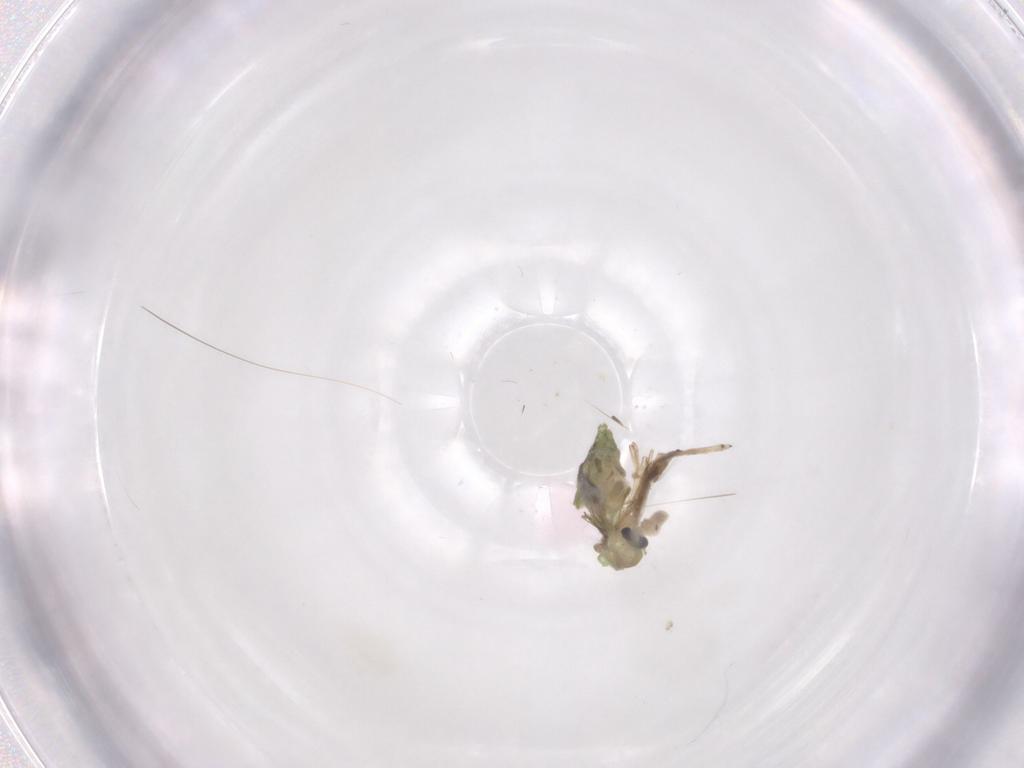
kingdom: Animalia
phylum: Arthropoda
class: Insecta
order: Diptera
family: Chironomidae
